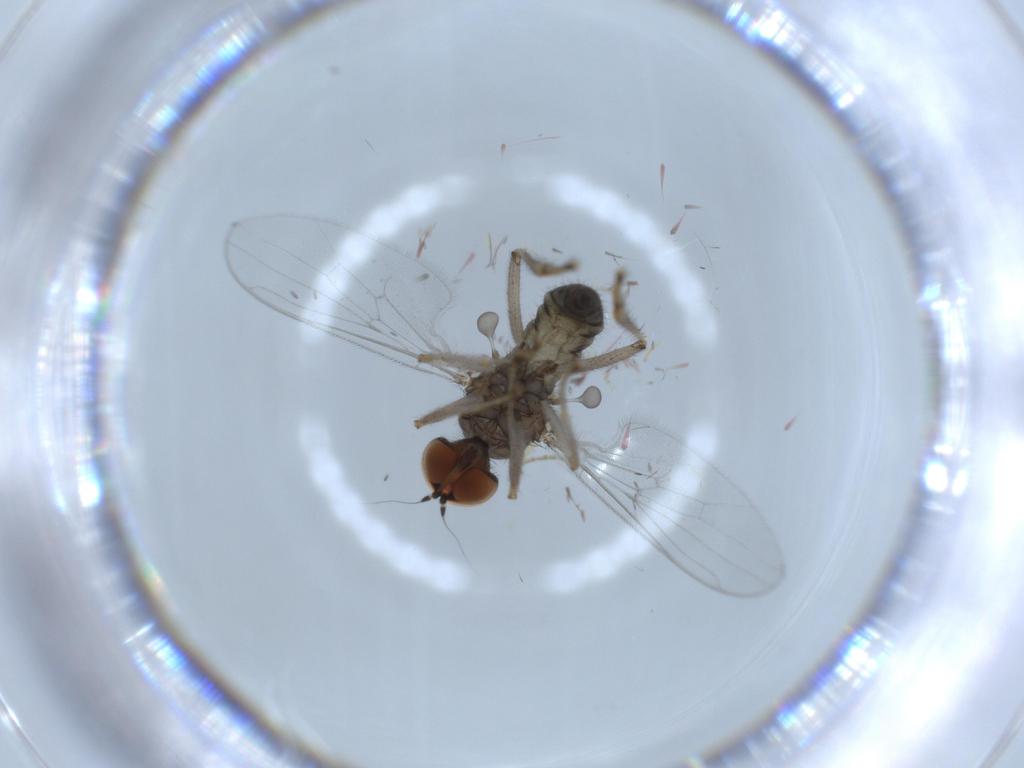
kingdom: Animalia
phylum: Arthropoda
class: Insecta
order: Diptera
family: Hybotidae
